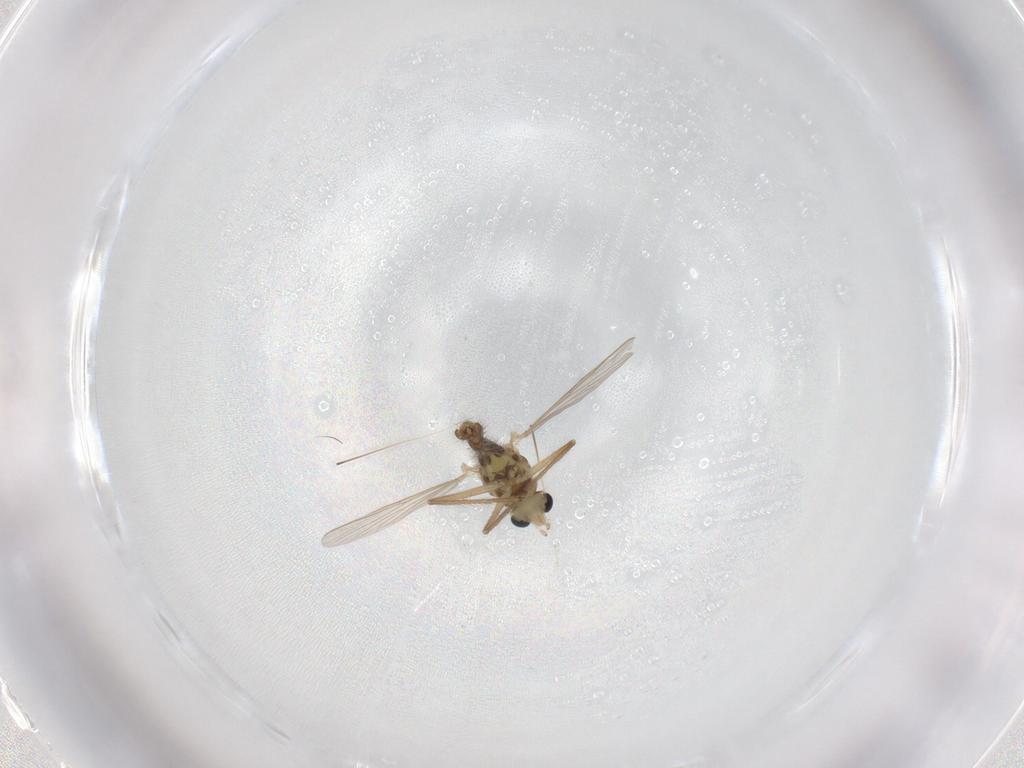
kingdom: Animalia
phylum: Arthropoda
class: Insecta
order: Diptera
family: Chironomidae
